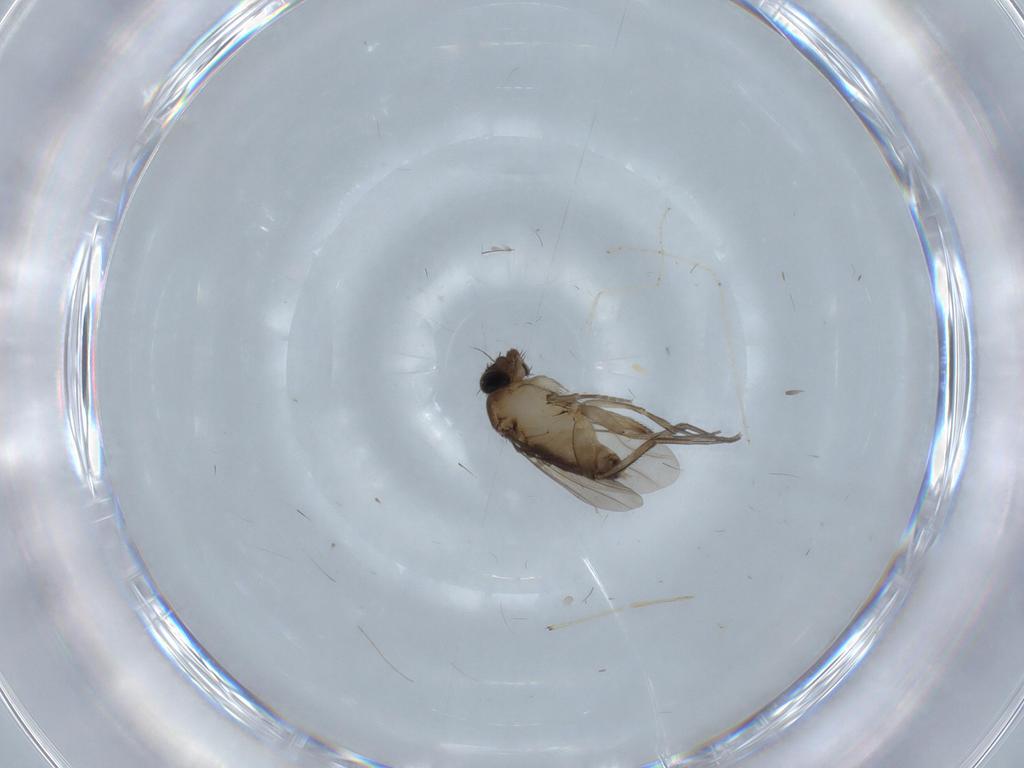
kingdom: Animalia
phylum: Arthropoda
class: Insecta
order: Diptera
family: Phoridae
